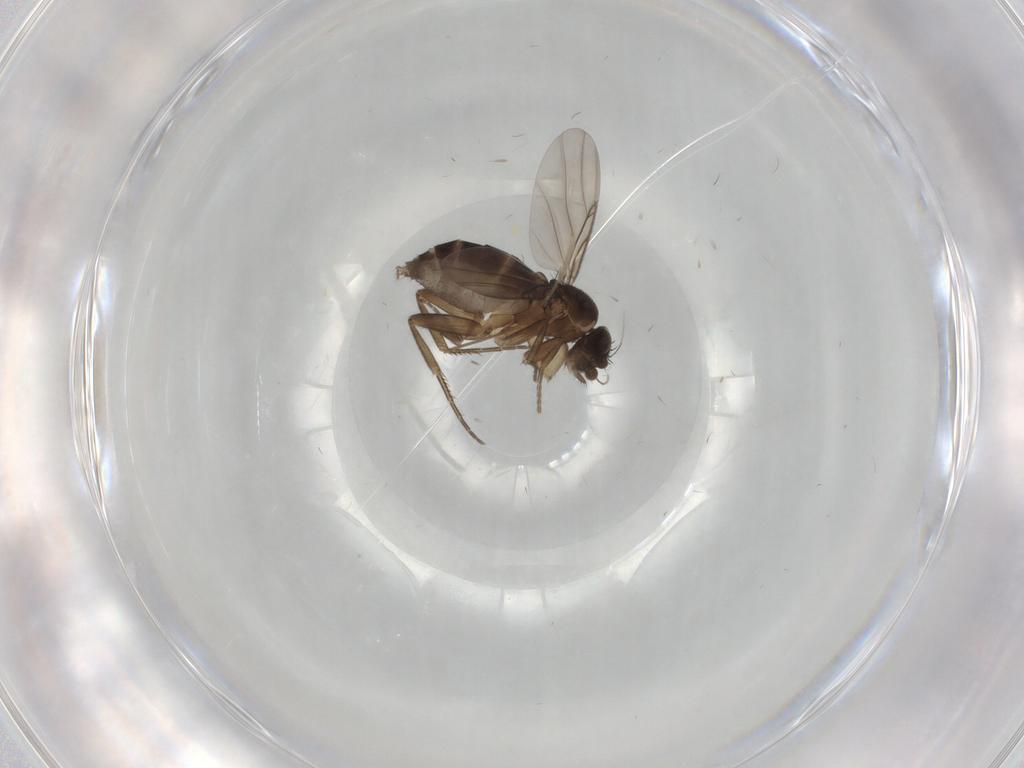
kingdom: Animalia
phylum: Arthropoda
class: Insecta
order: Diptera
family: Phoridae
